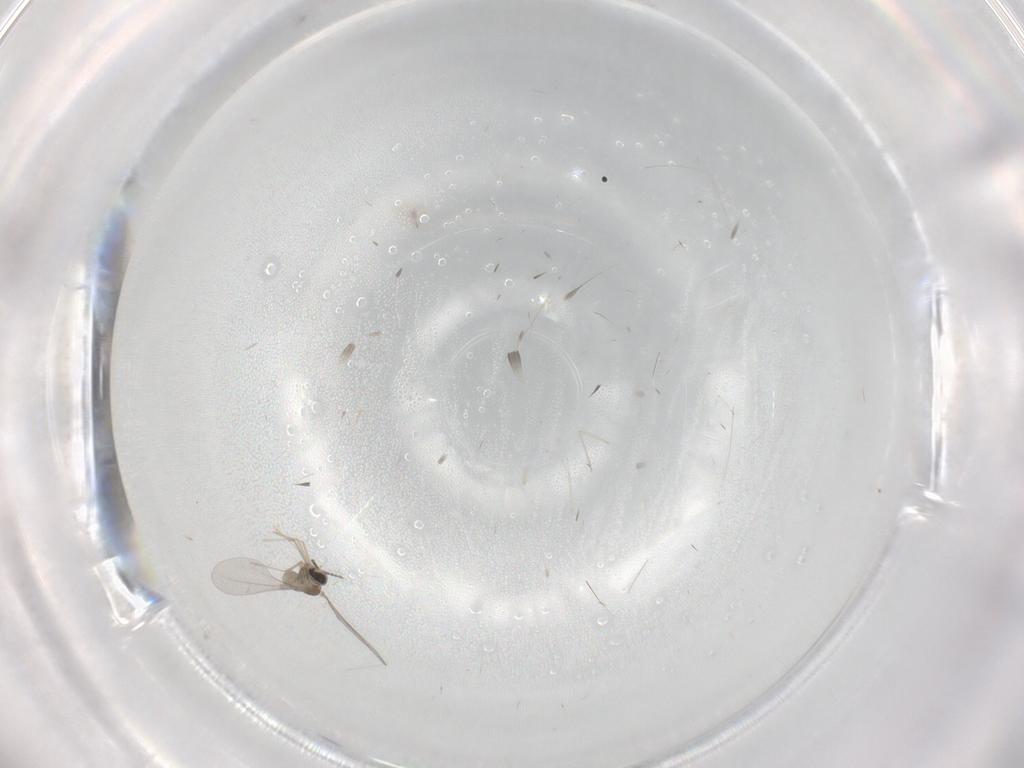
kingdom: Animalia
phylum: Arthropoda
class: Insecta
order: Diptera
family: Cecidomyiidae
